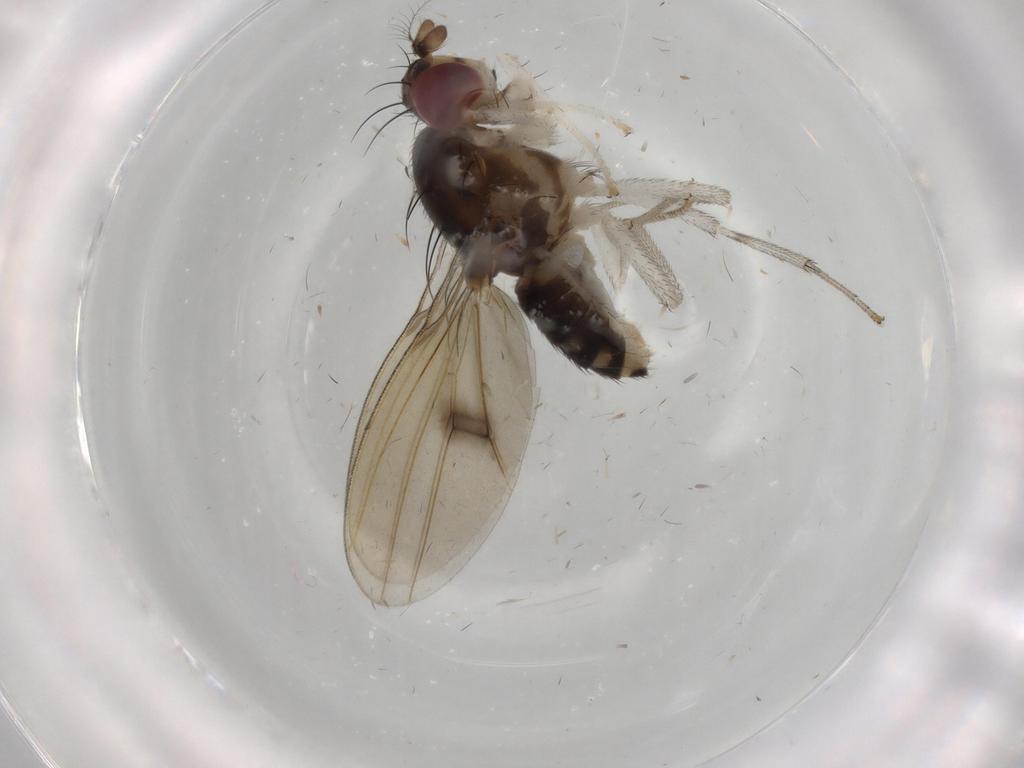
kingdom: Animalia
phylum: Arthropoda
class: Insecta
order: Diptera
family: Lauxaniidae
